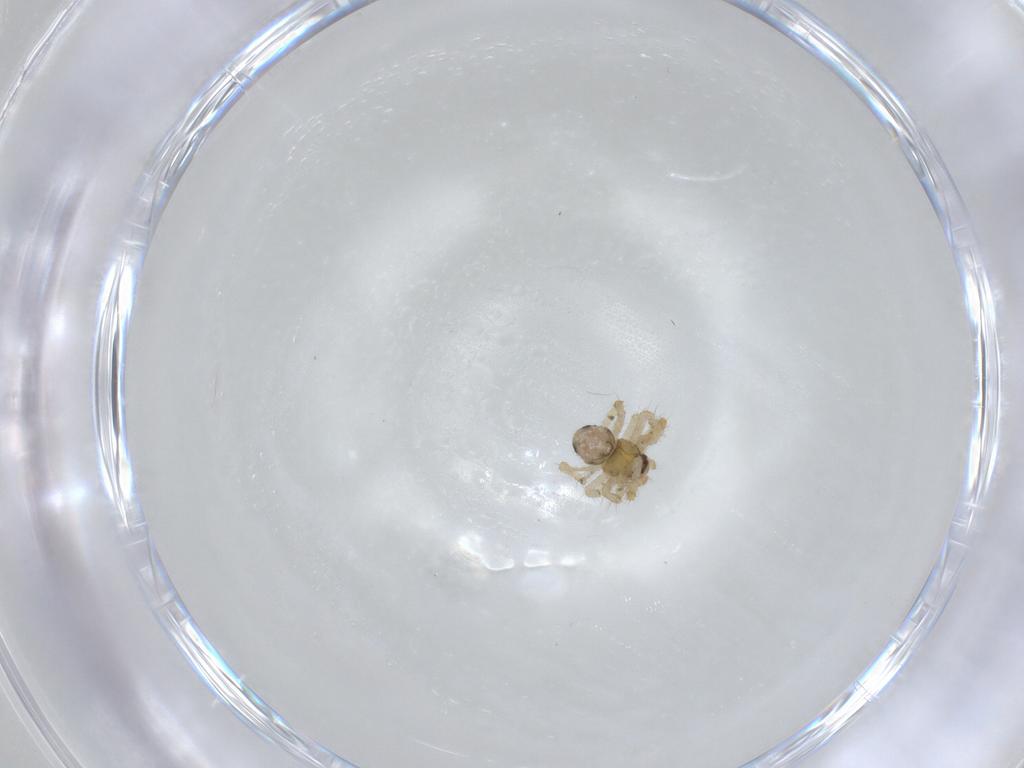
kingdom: Animalia
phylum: Arthropoda
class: Arachnida
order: Araneae
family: Theridiidae
